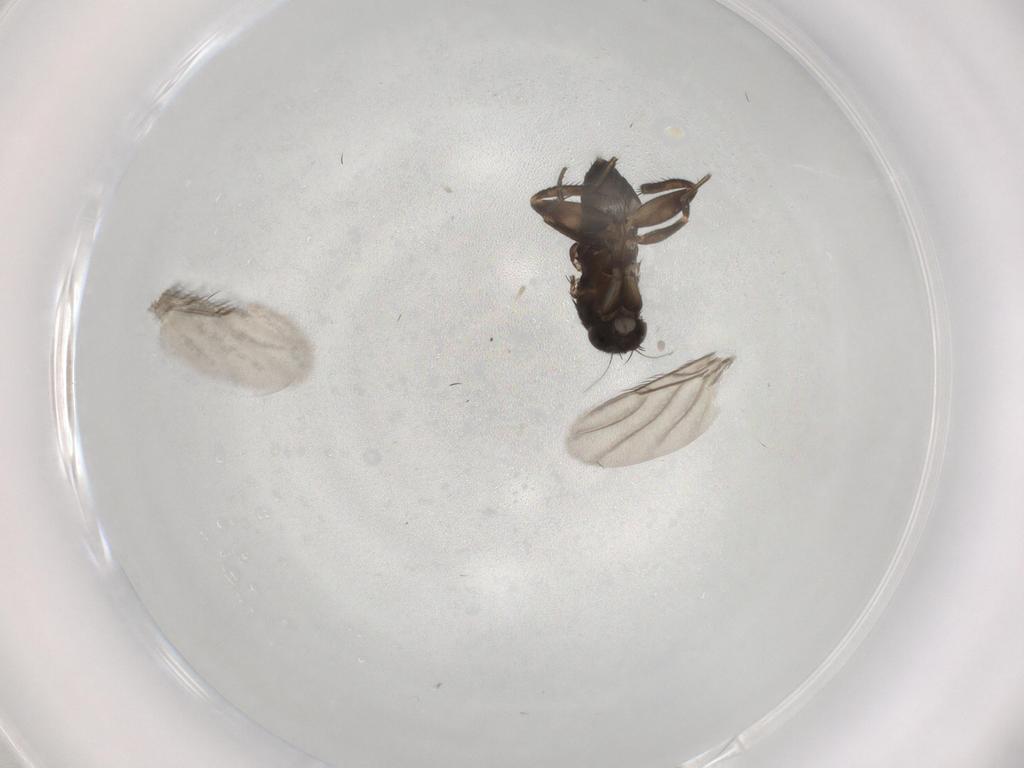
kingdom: Animalia
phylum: Arthropoda
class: Insecta
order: Diptera
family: Phoridae
